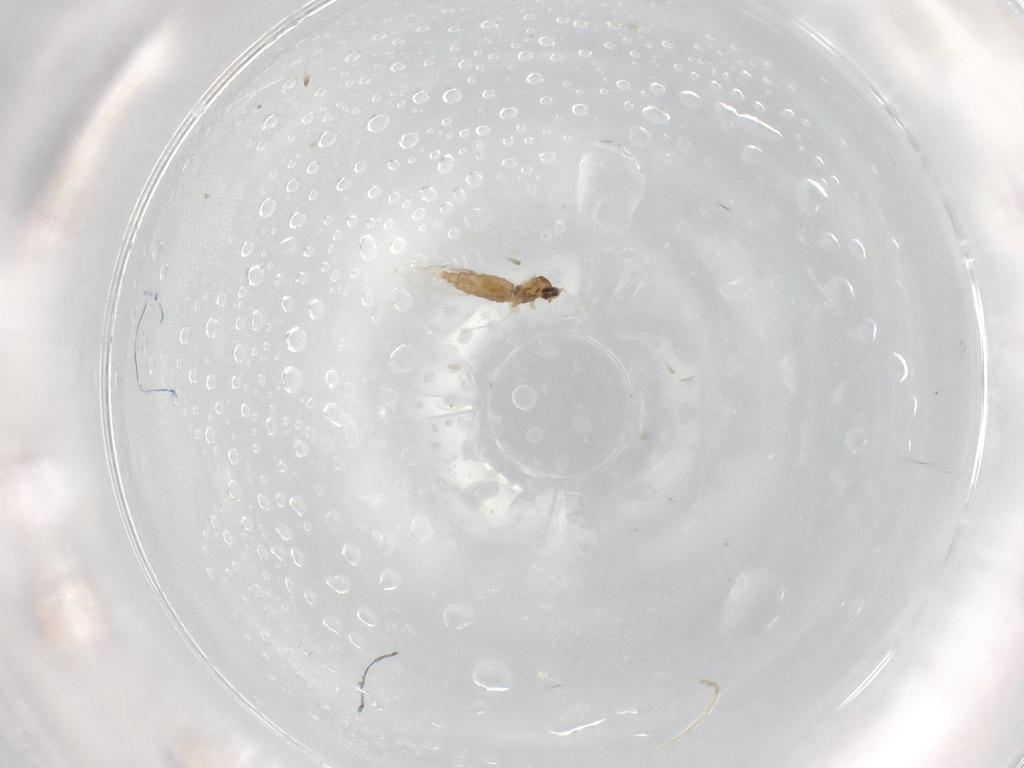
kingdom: Animalia
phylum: Arthropoda
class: Insecta
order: Diptera
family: Cecidomyiidae
